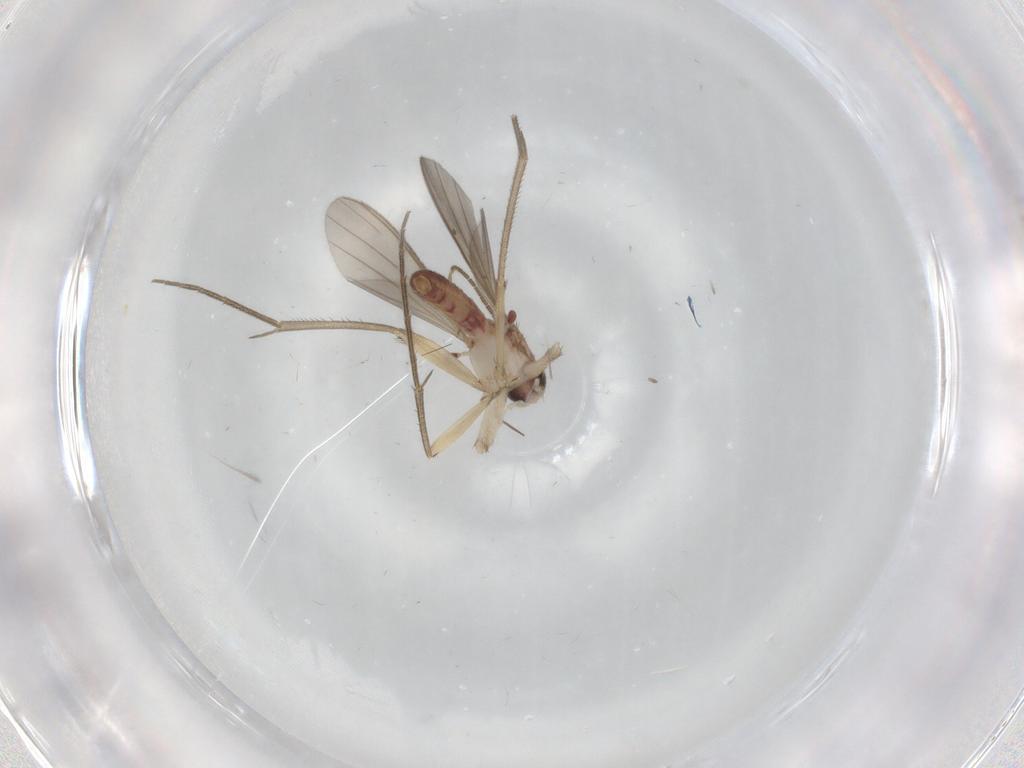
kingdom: Animalia
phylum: Arthropoda
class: Insecta
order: Diptera
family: Mycetophilidae
